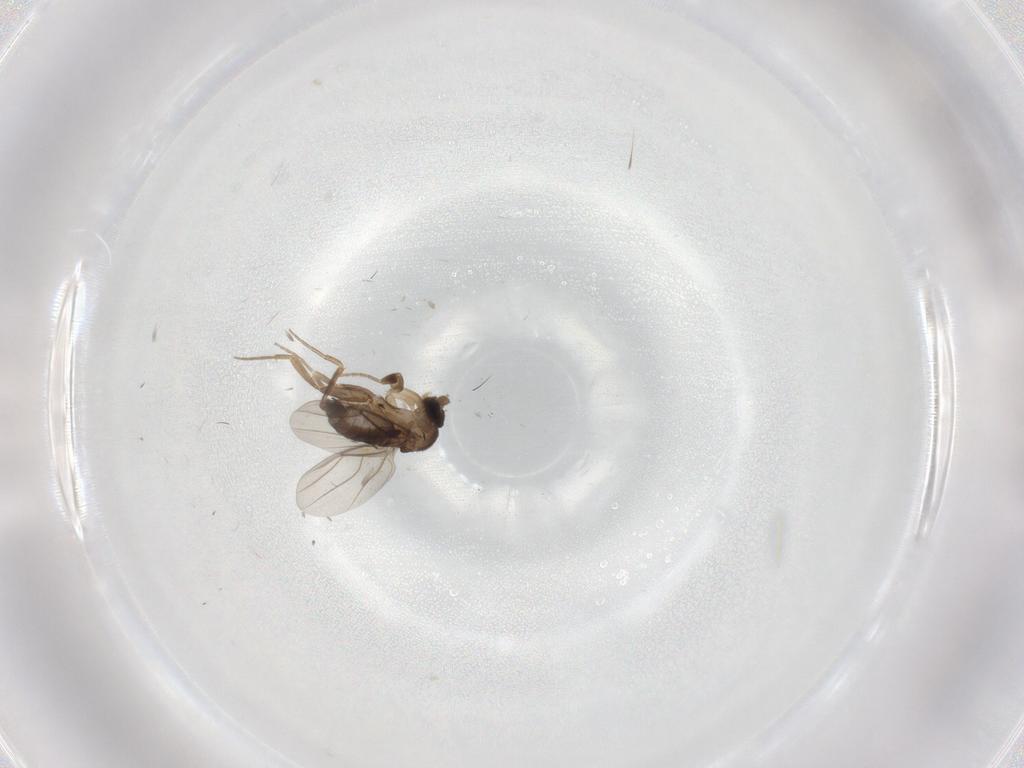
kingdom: Animalia
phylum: Arthropoda
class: Insecta
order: Diptera
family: Phoridae
